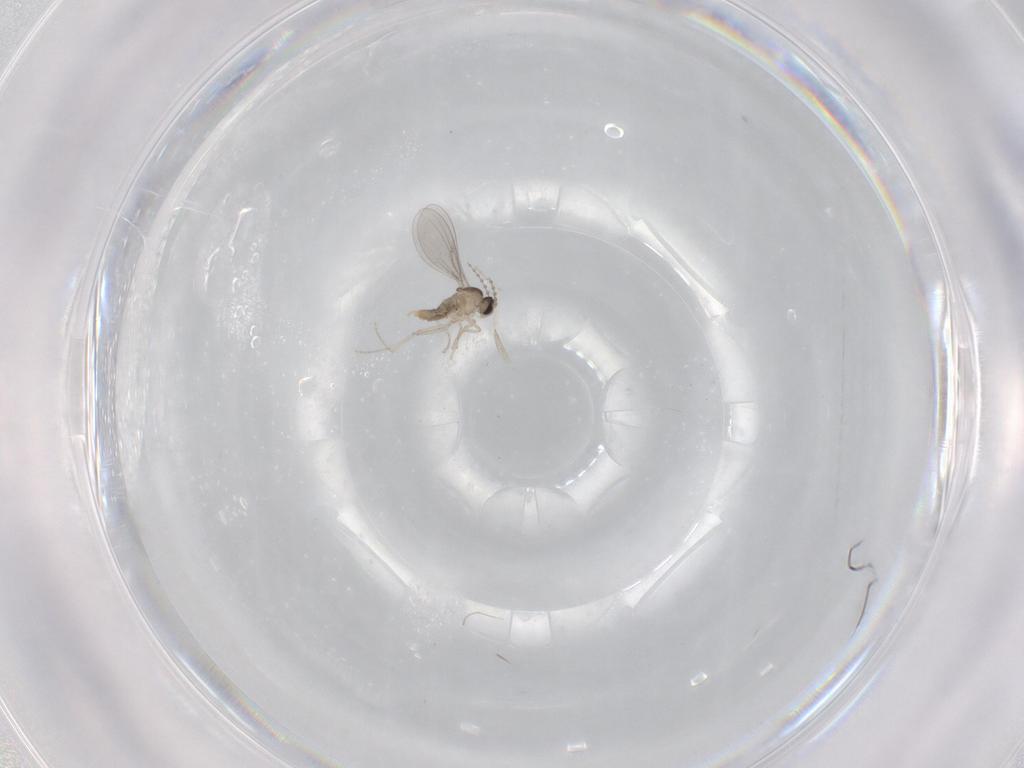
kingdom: Animalia
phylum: Arthropoda
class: Insecta
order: Diptera
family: Cecidomyiidae
